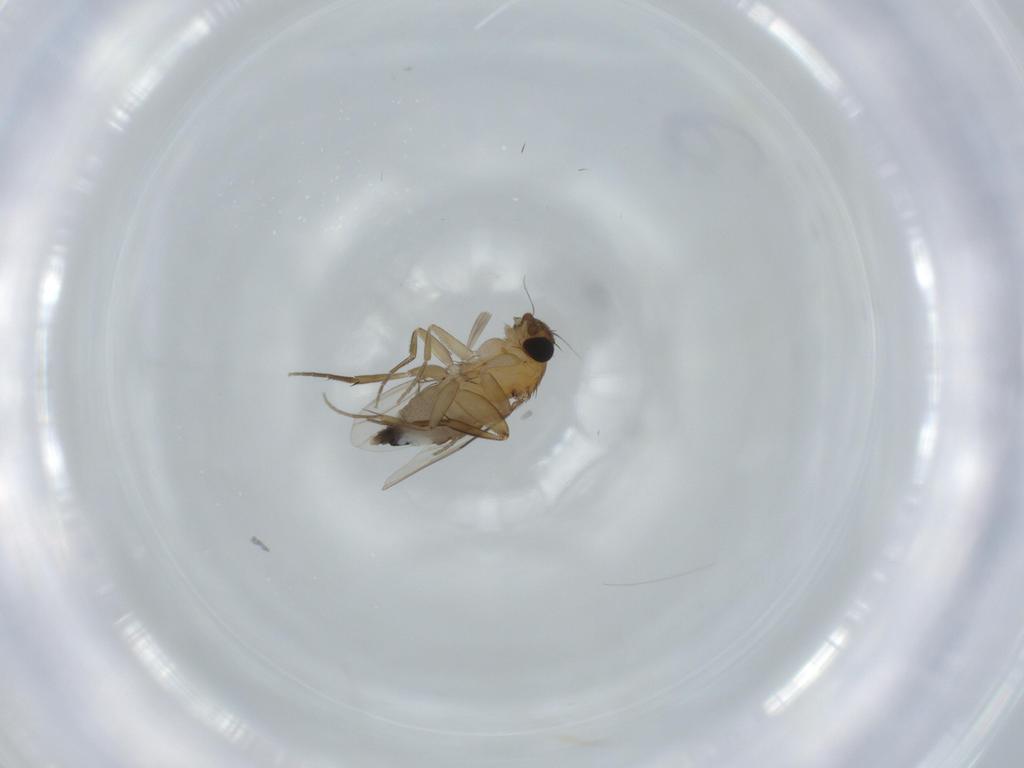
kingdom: Animalia
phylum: Arthropoda
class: Insecta
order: Diptera
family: Phoridae
